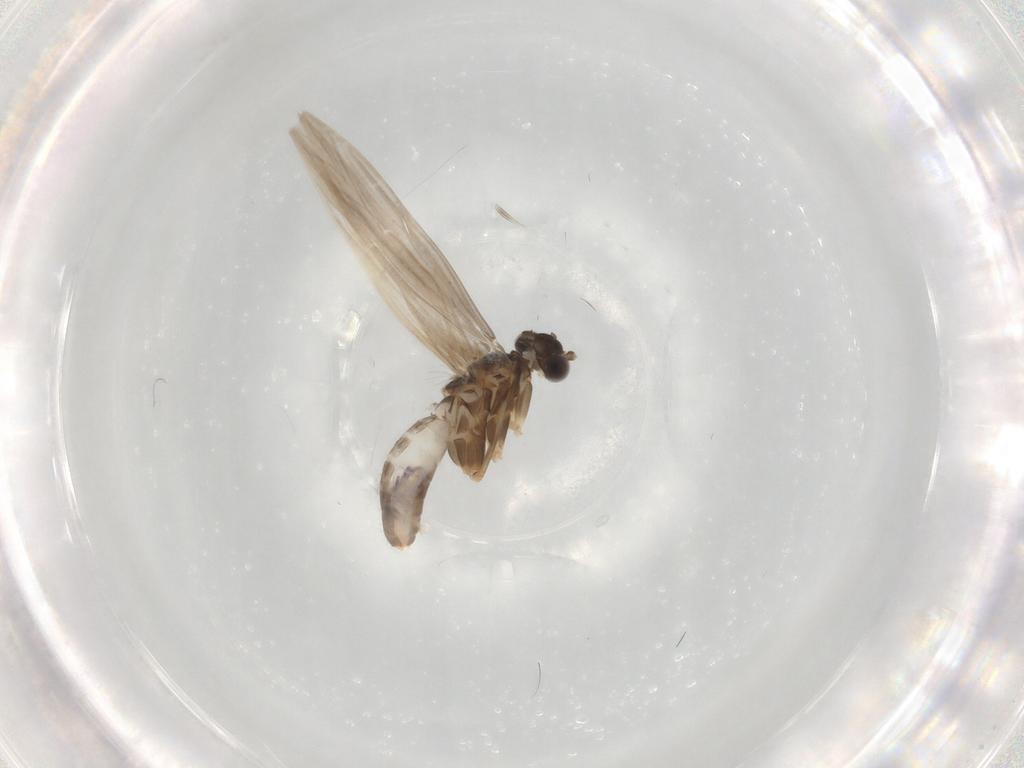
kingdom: Animalia
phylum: Arthropoda
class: Insecta
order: Trichoptera
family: Hydroptilidae
